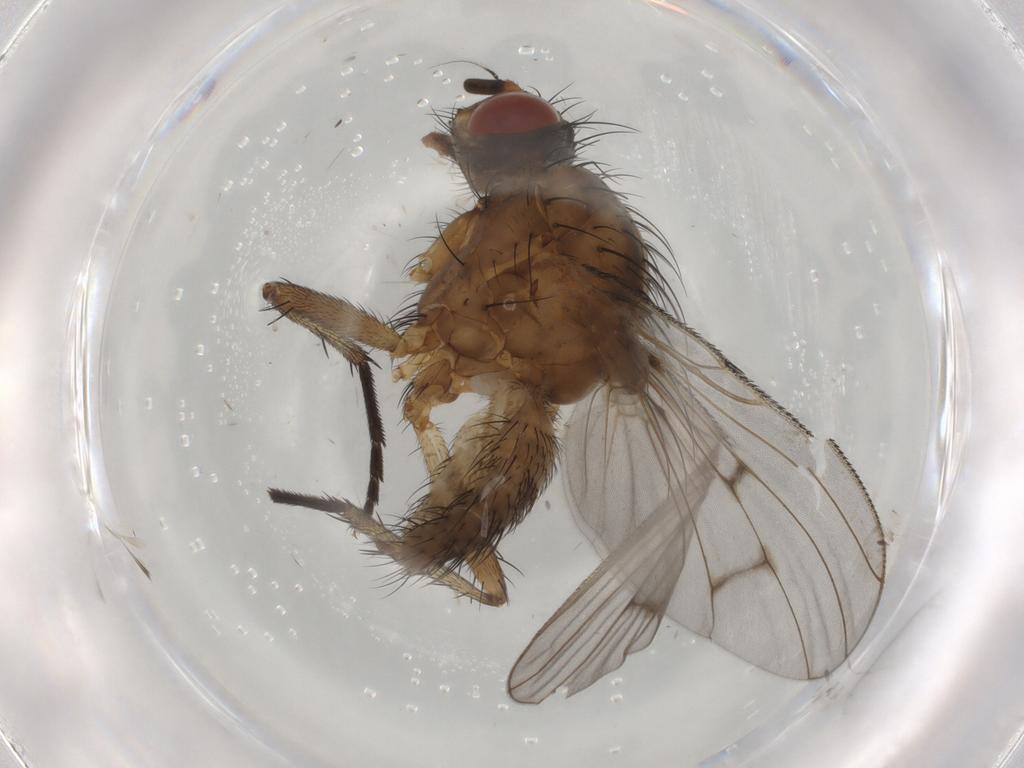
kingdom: Animalia
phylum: Arthropoda
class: Insecta
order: Diptera
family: Anthomyiidae
